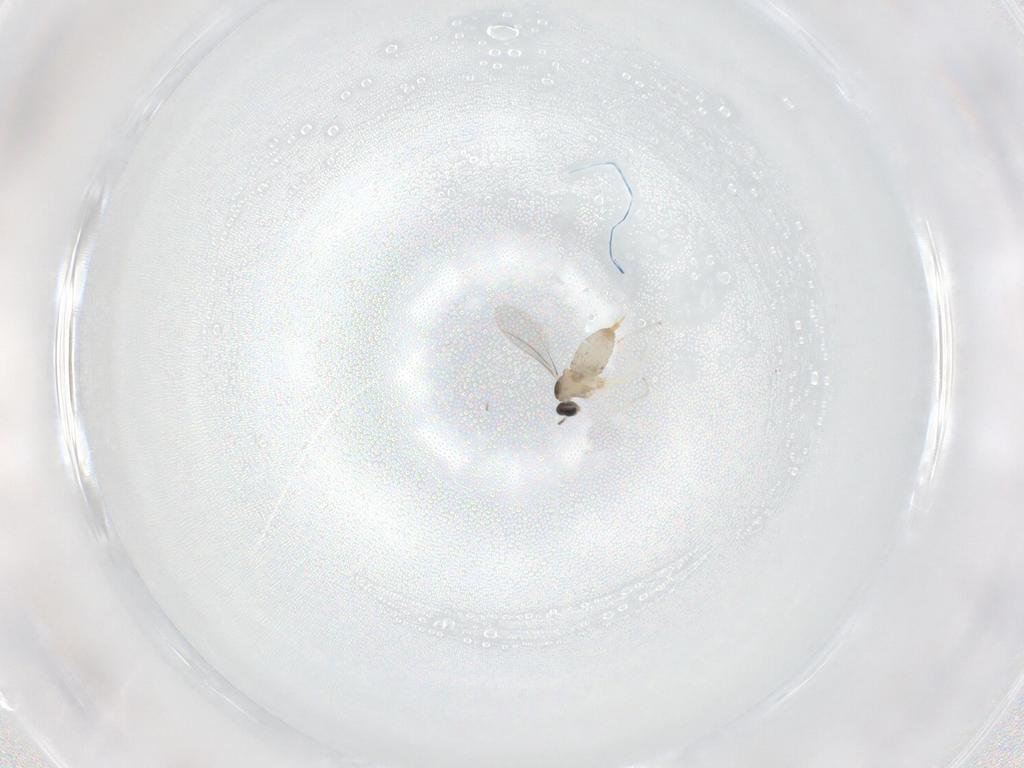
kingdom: Animalia
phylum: Arthropoda
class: Insecta
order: Diptera
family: Cecidomyiidae
